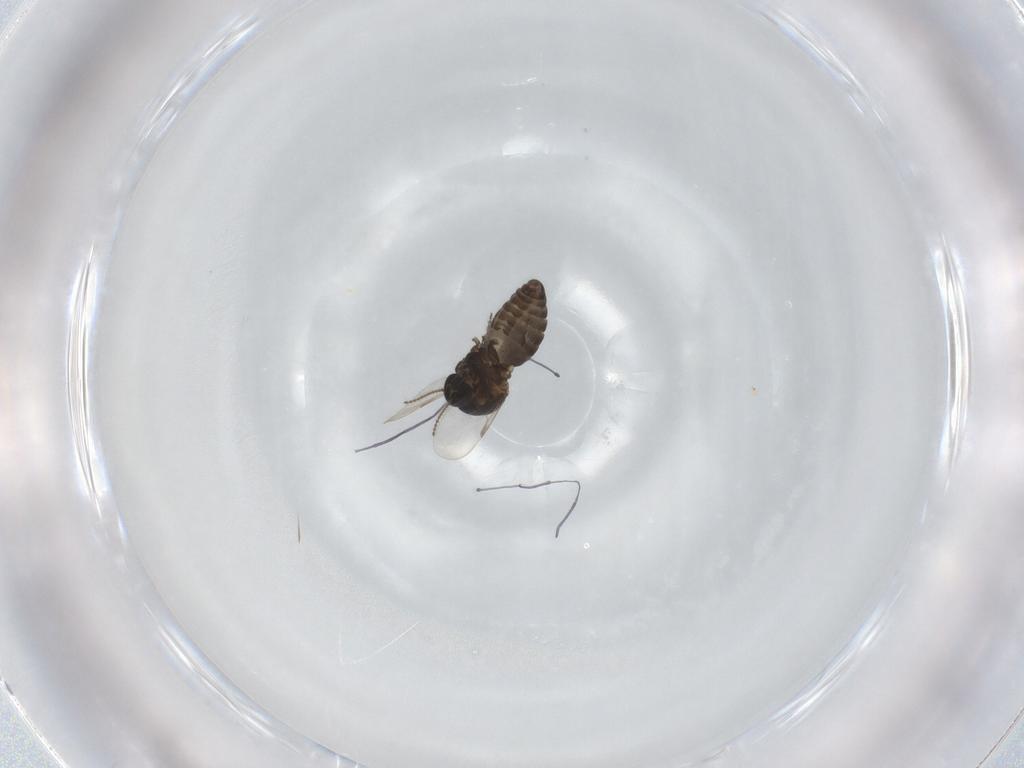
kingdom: Animalia
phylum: Arthropoda
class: Insecta
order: Diptera
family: Ceratopogonidae
